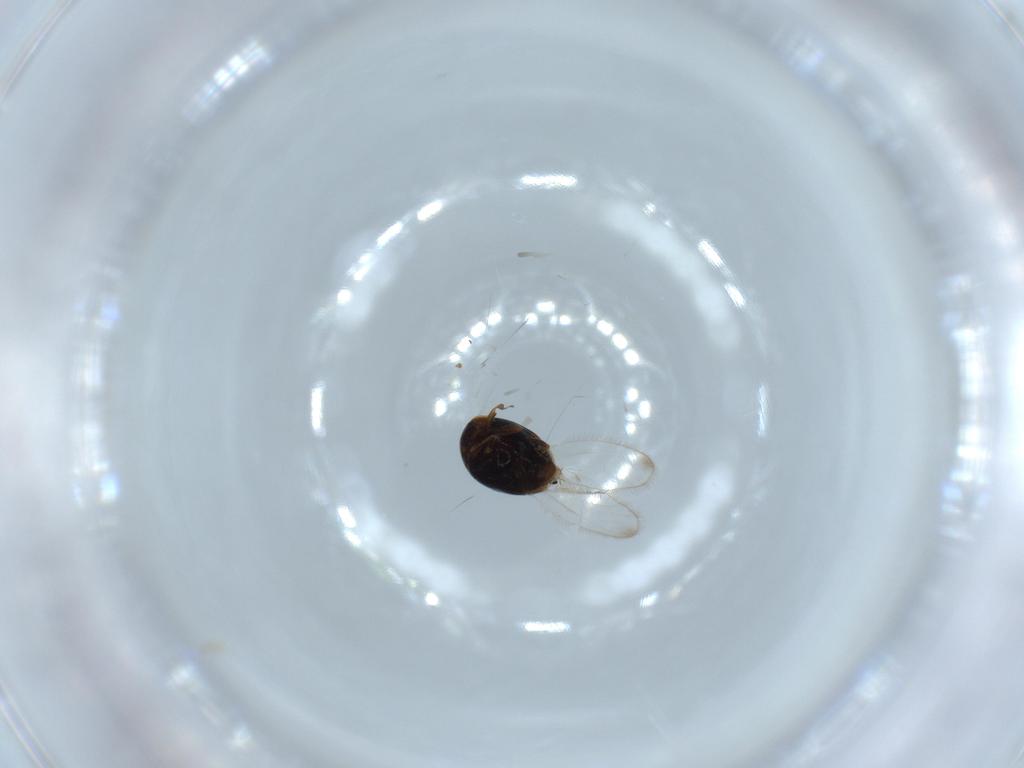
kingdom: Animalia
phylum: Arthropoda
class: Insecta
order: Coleoptera
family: Corylophidae
